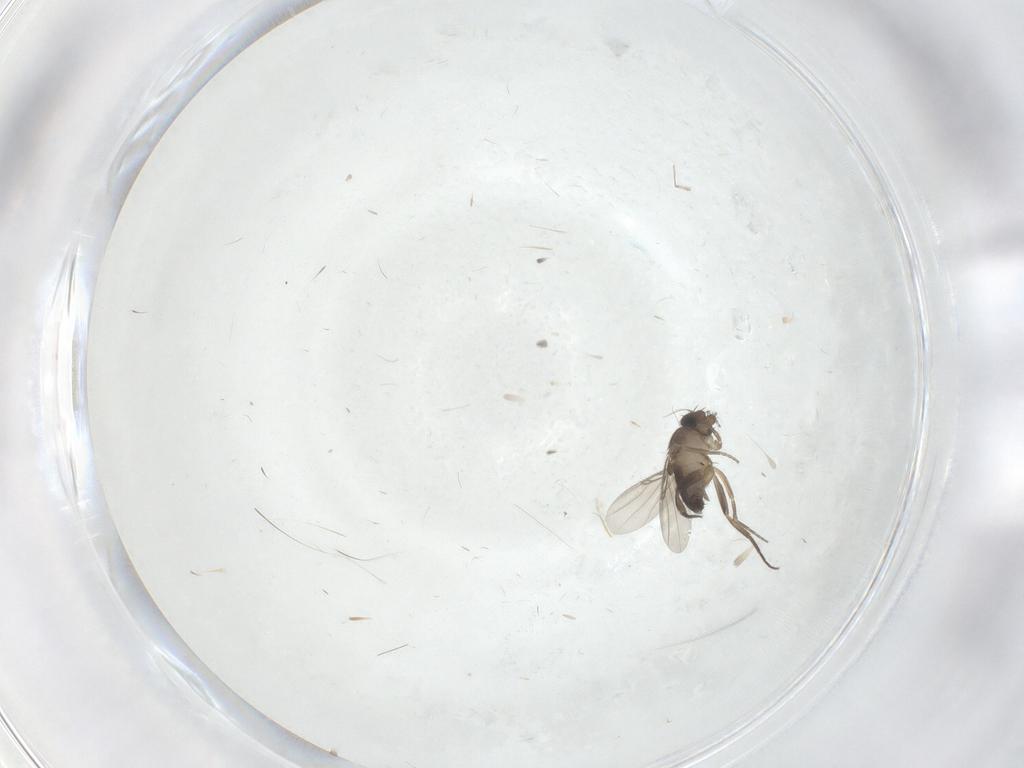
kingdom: Animalia
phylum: Arthropoda
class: Insecta
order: Diptera
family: Phoridae
